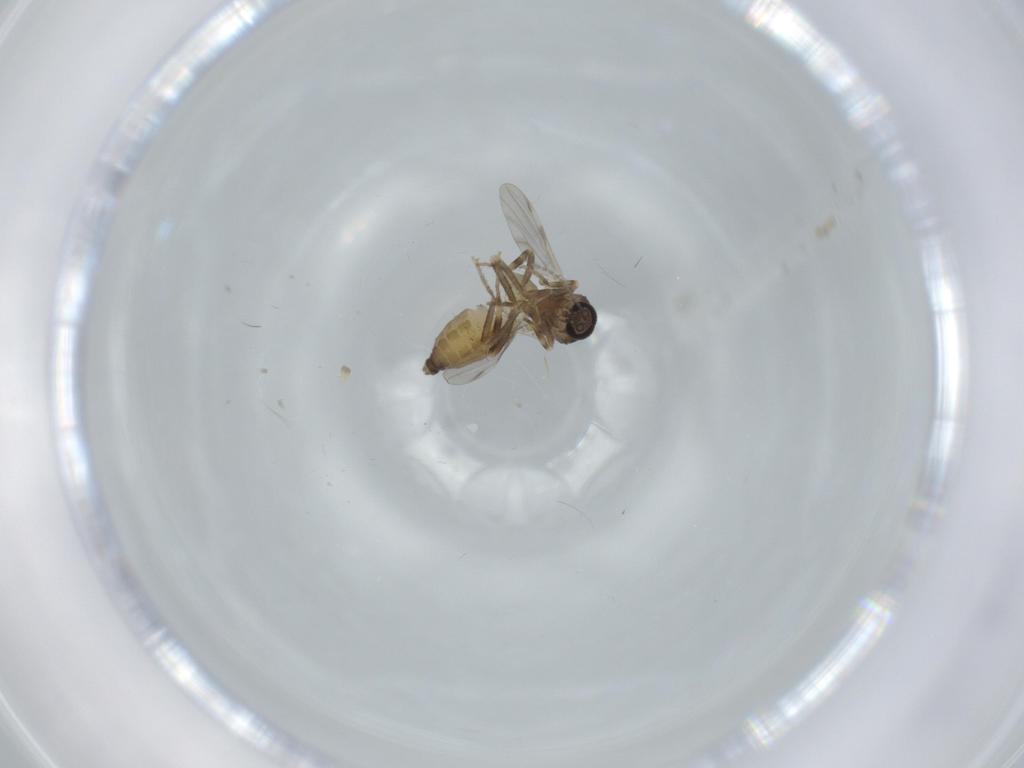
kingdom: Animalia
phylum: Arthropoda
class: Insecta
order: Diptera
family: Ceratopogonidae
